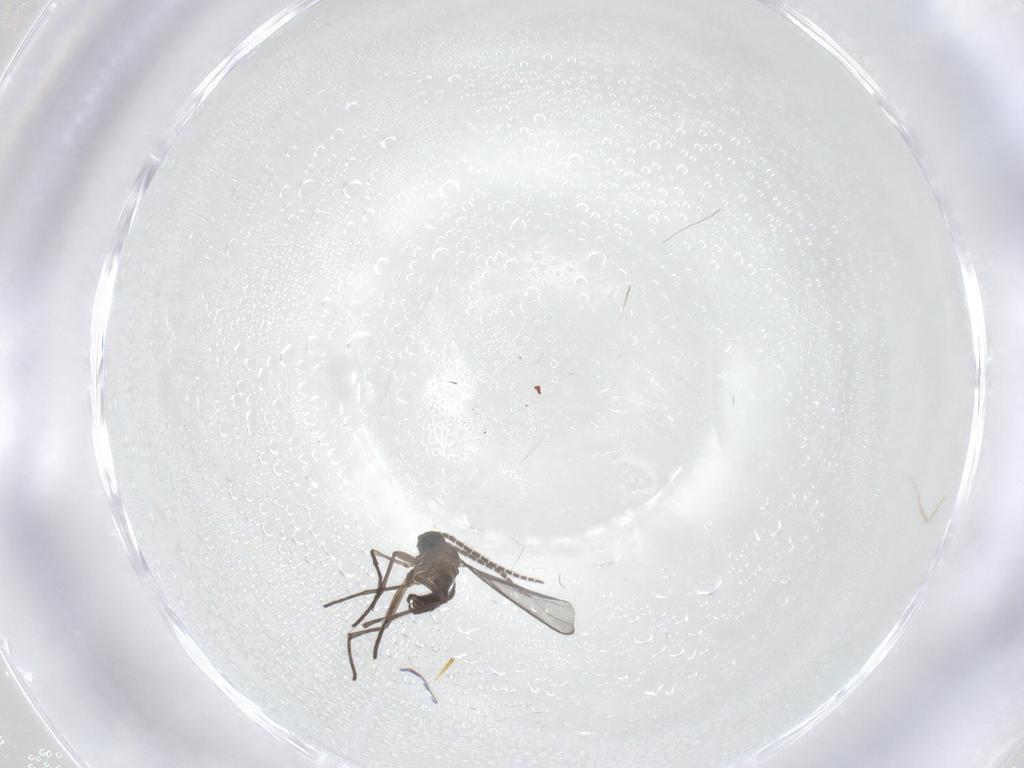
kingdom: Animalia
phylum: Arthropoda
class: Insecta
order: Diptera
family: Sciaridae
